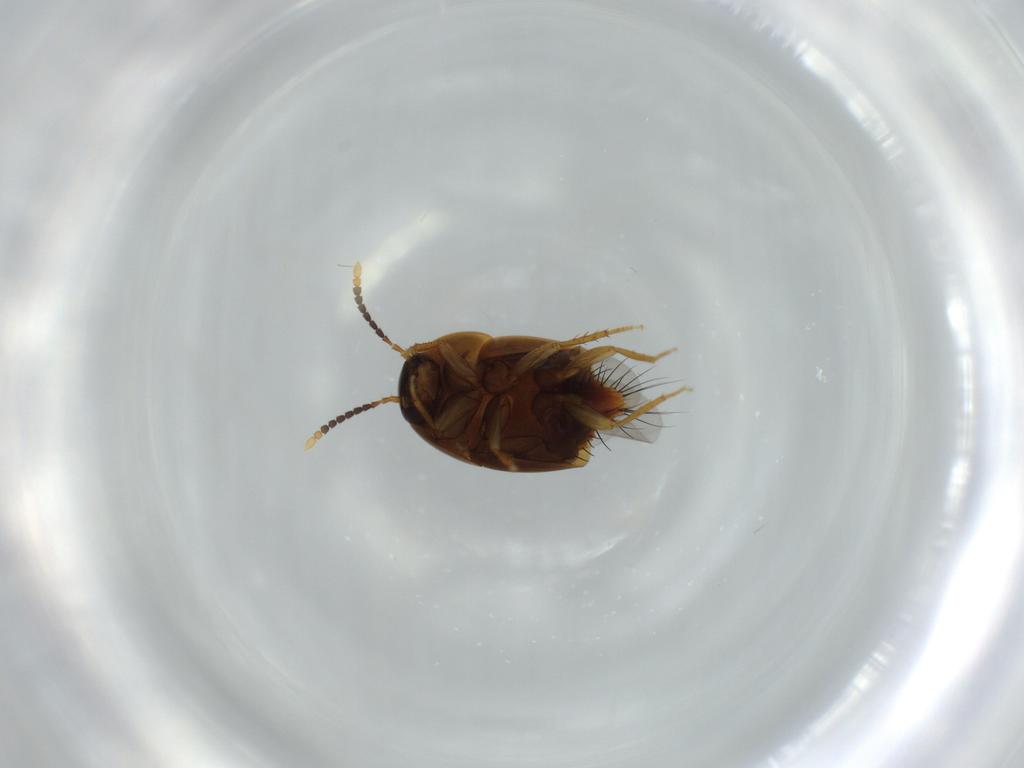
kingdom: Animalia
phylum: Arthropoda
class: Insecta
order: Coleoptera
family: Staphylinidae
